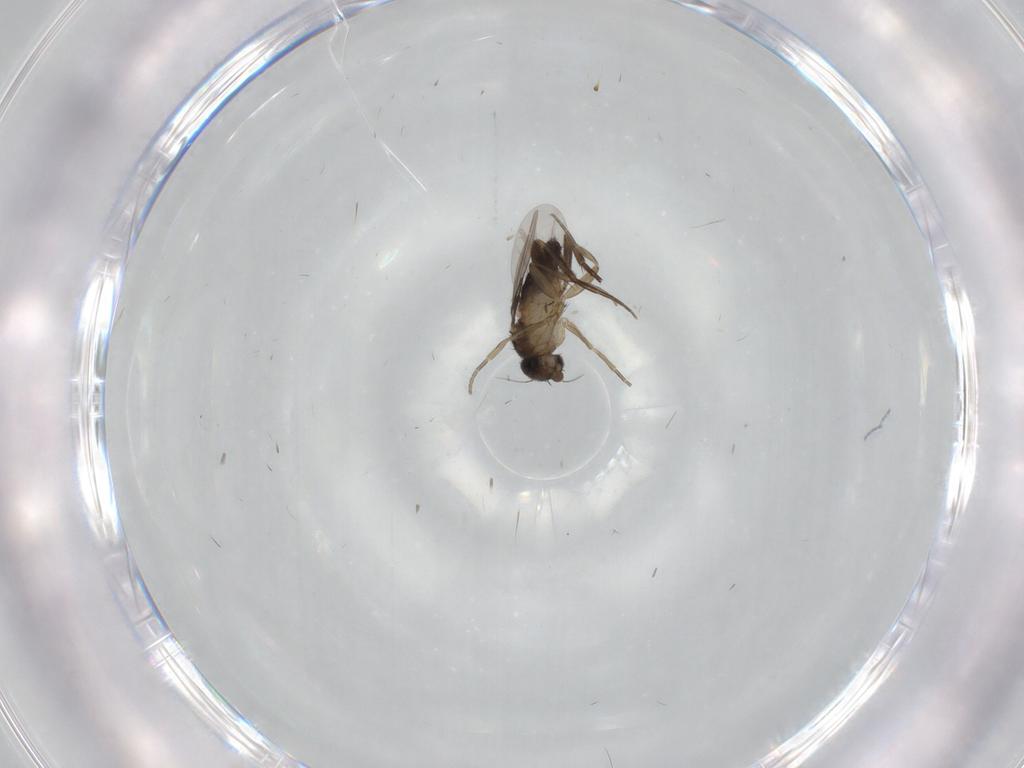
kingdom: Animalia
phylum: Arthropoda
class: Insecta
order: Diptera
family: Phoridae
